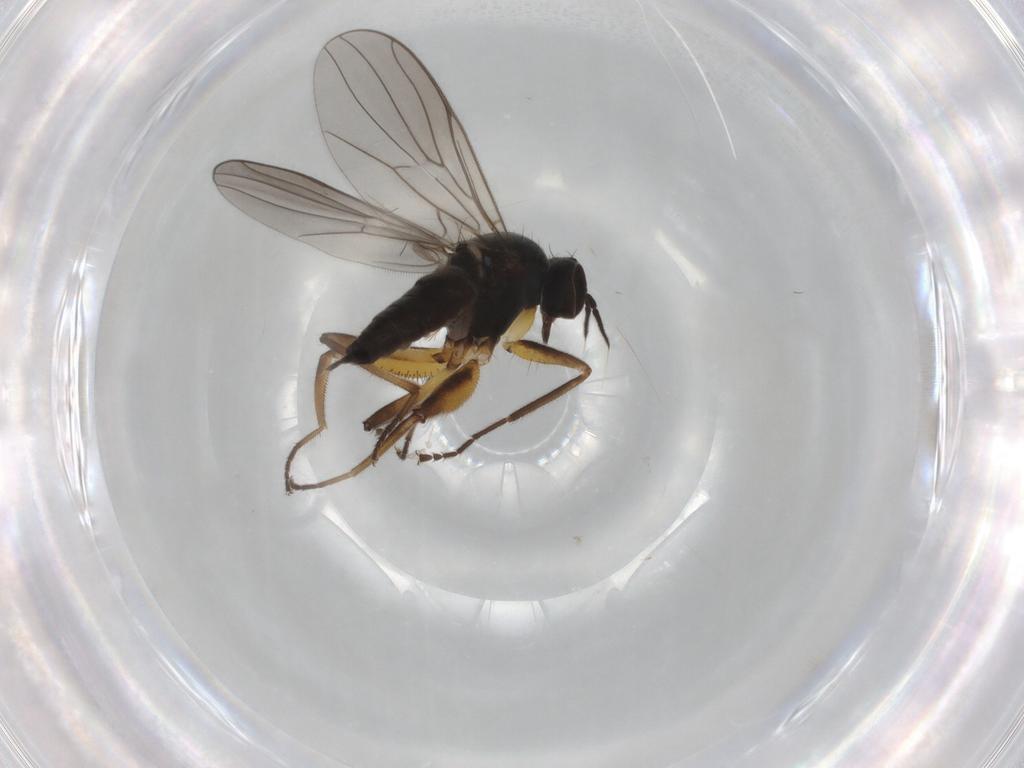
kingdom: Animalia
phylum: Arthropoda
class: Insecta
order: Diptera
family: Hybotidae
